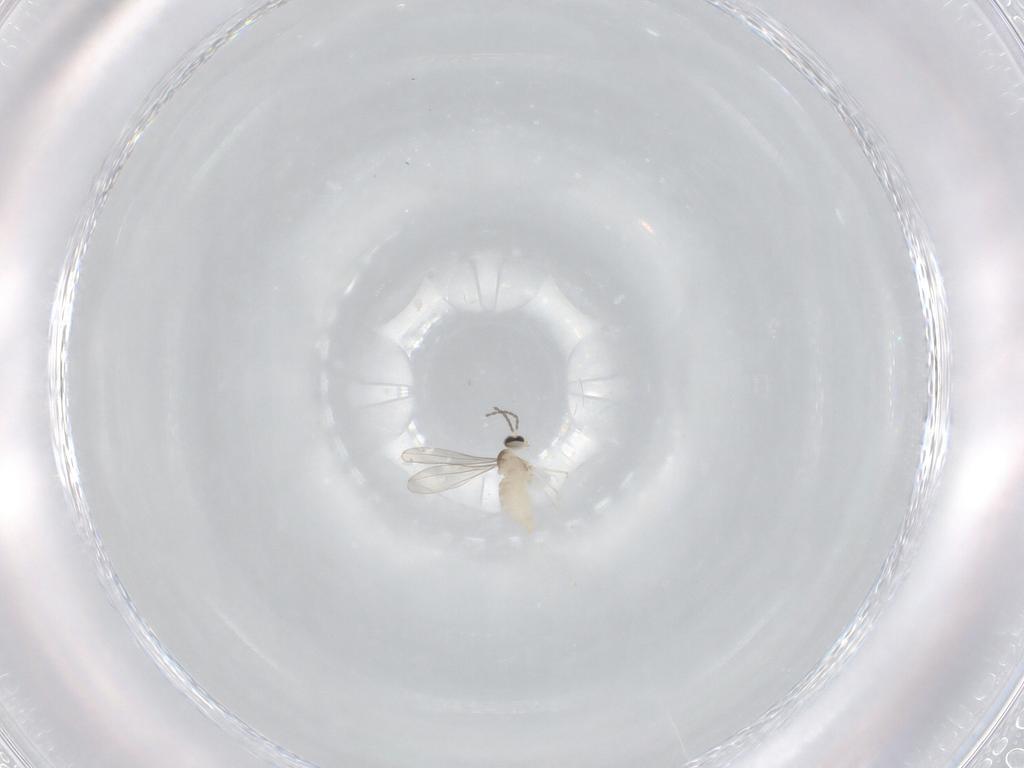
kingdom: Animalia
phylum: Arthropoda
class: Insecta
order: Diptera
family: Cecidomyiidae
